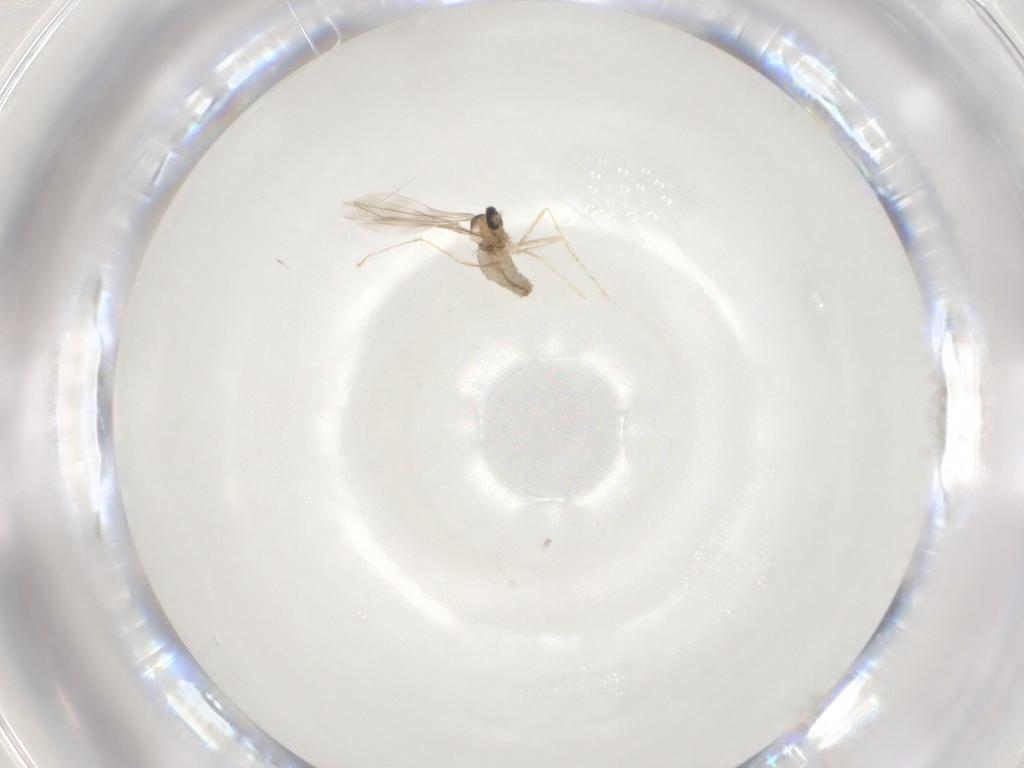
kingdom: Animalia
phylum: Arthropoda
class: Insecta
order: Diptera
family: Cecidomyiidae
